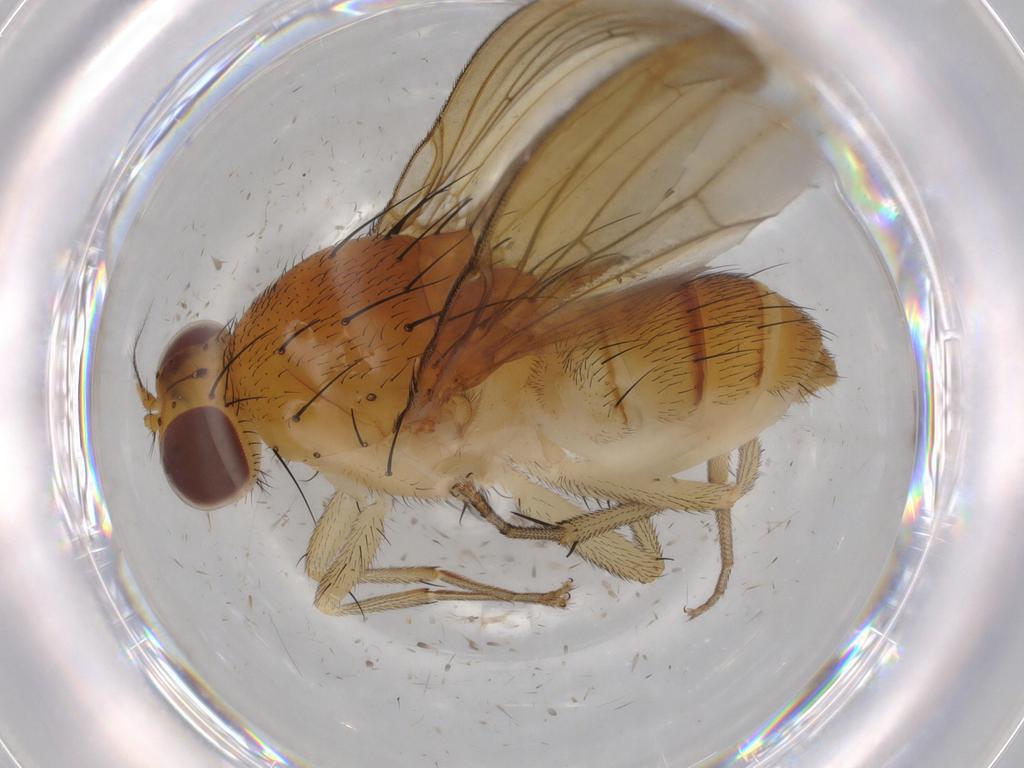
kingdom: Animalia
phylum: Arthropoda
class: Insecta
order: Diptera
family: Psychodidae
